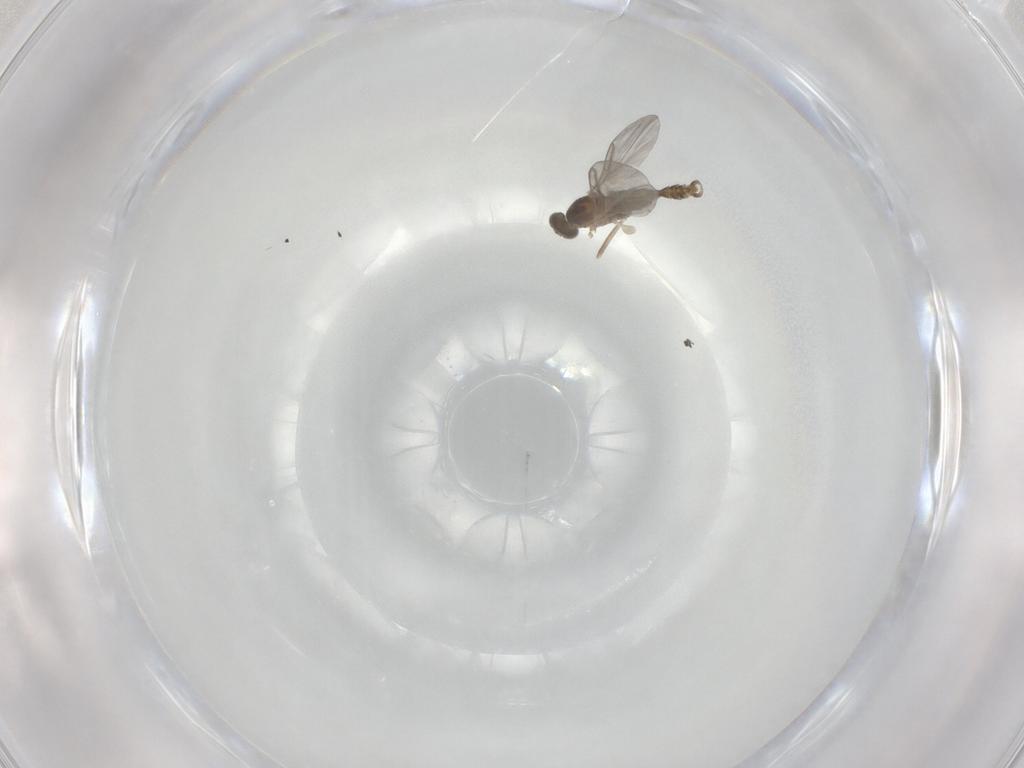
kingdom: Animalia
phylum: Arthropoda
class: Insecta
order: Diptera
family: Cecidomyiidae
